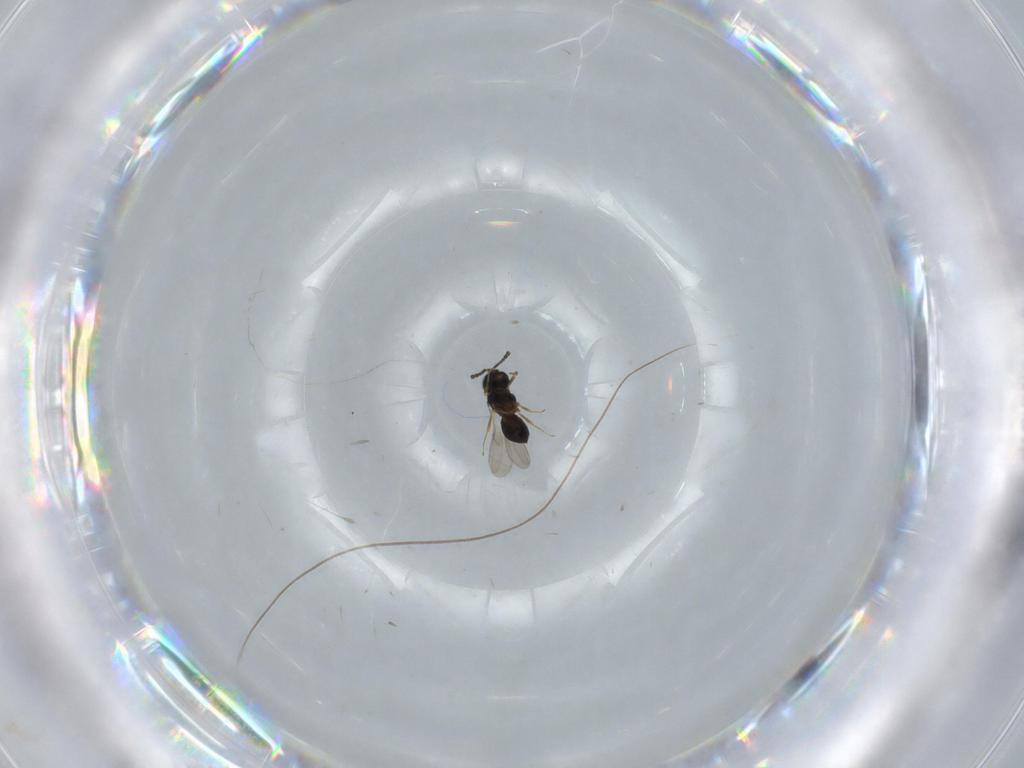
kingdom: Animalia
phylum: Arthropoda
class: Insecta
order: Hymenoptera
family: Scelionidae
